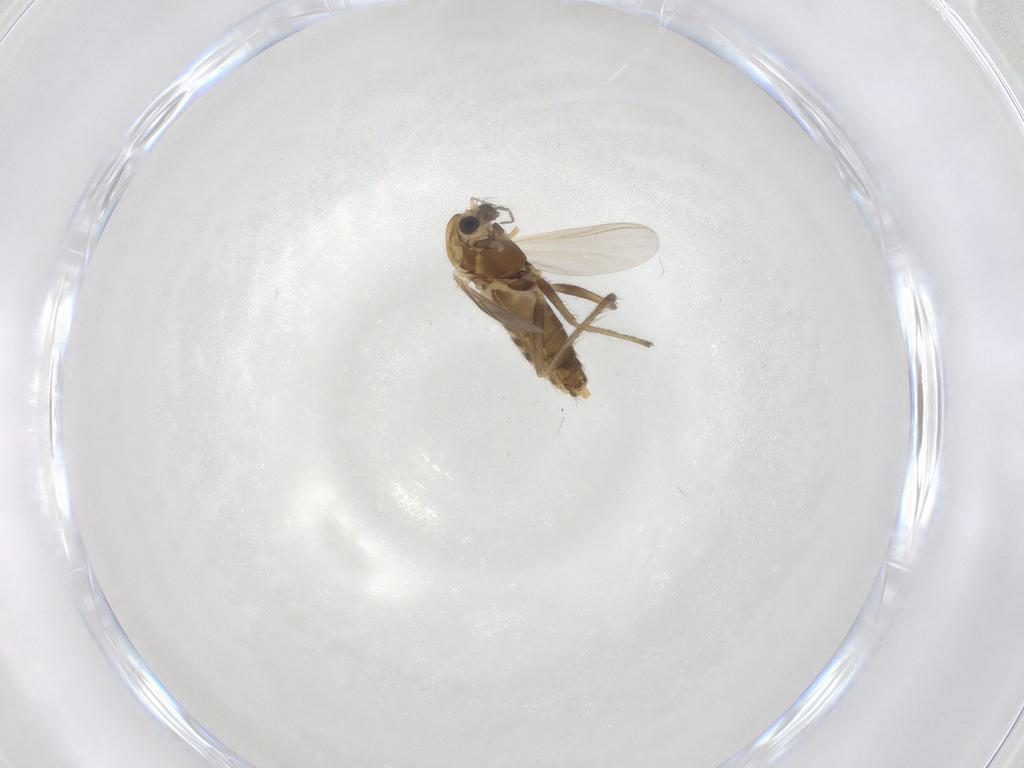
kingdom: Animalia
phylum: Arthropoda
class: Insecta
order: Diptera
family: Chironomidae
